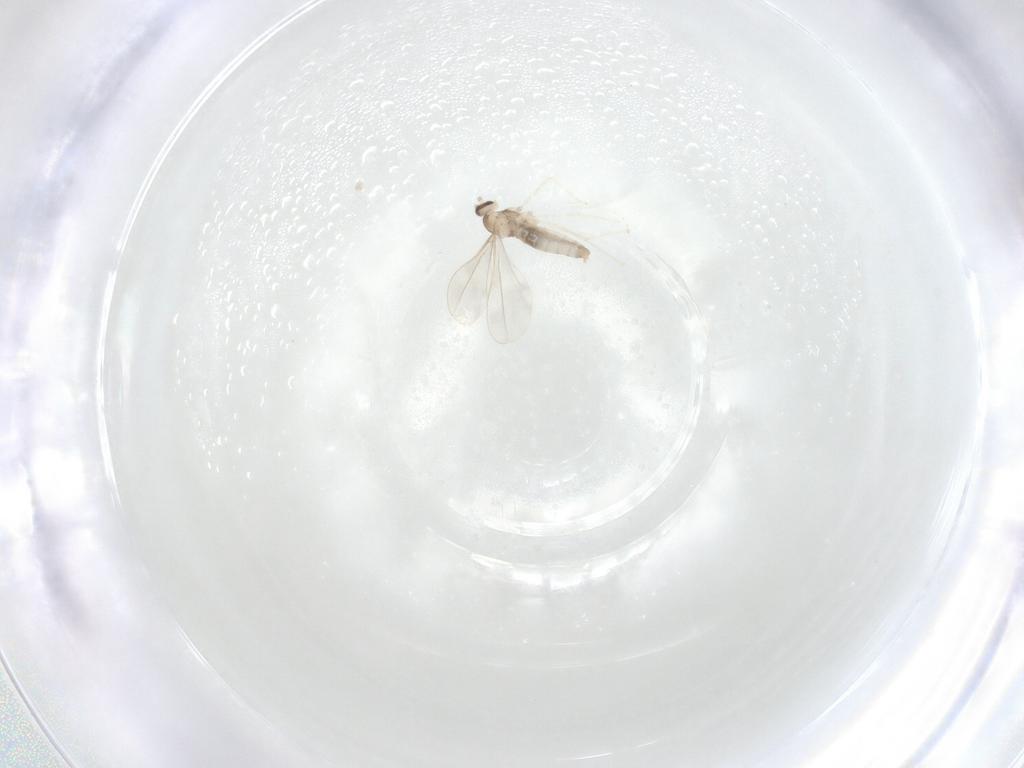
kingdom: Animalia
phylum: Arthropoda
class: Insecta
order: Diptera
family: Cecidomyiidae
